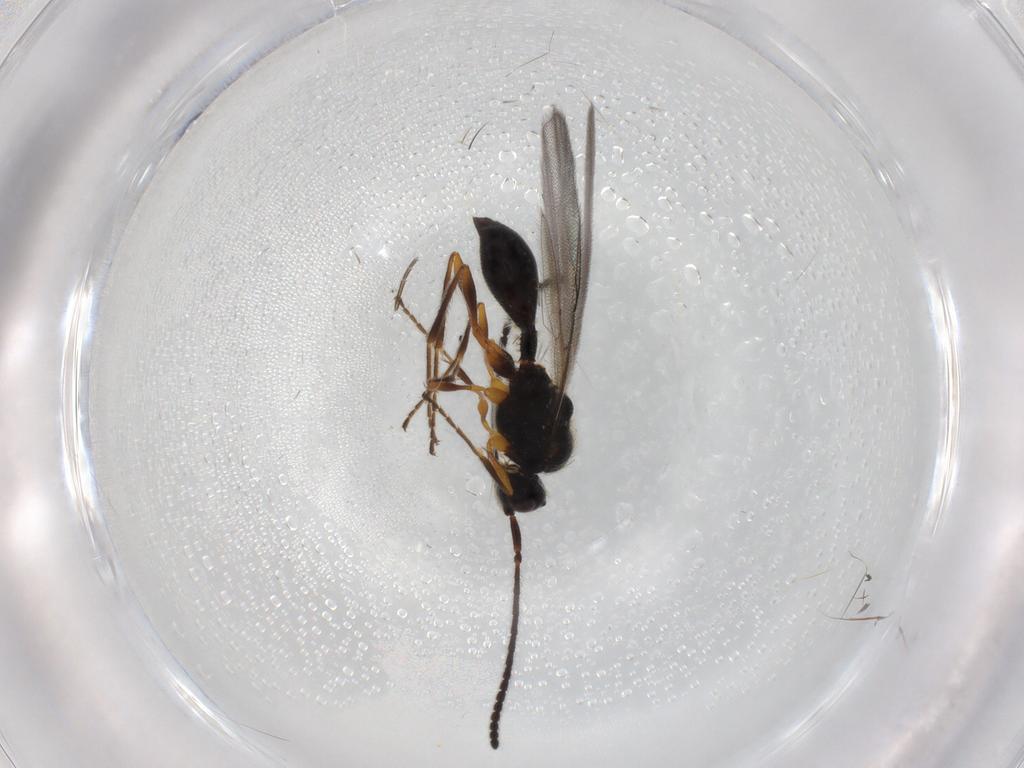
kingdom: Animalia
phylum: Arthropoda
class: Insecta
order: Hymenoptera
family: Diapriidae
